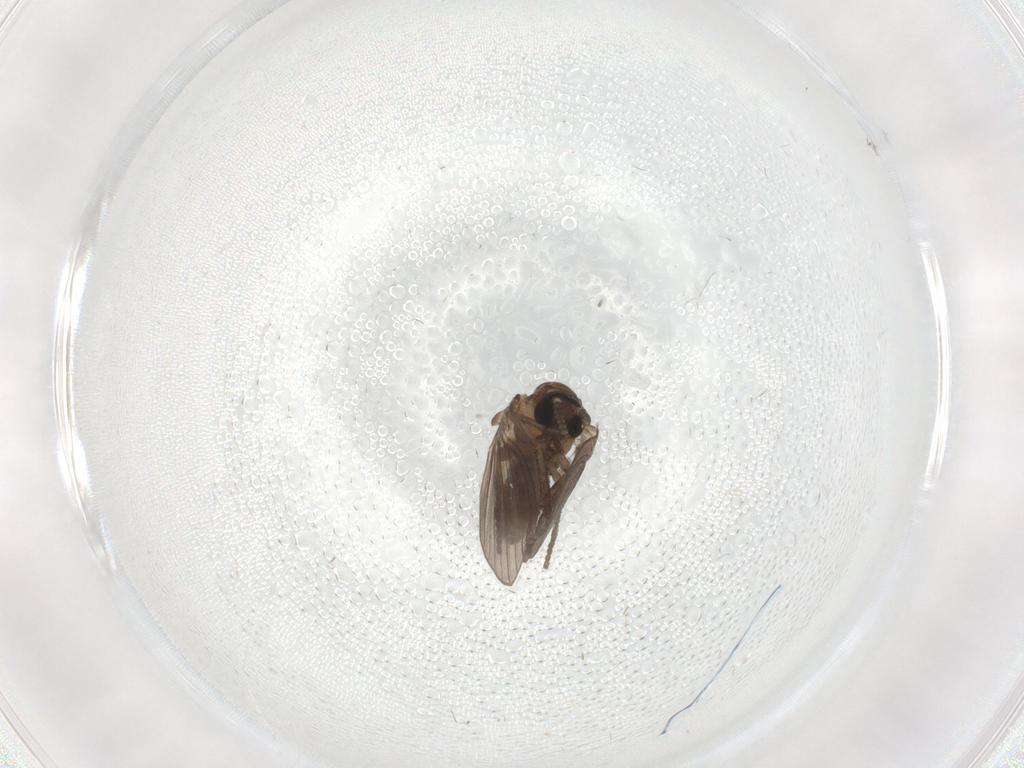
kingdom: Animalia
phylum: Arthropoda
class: Insecta
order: Diptera
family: Psychodidae
